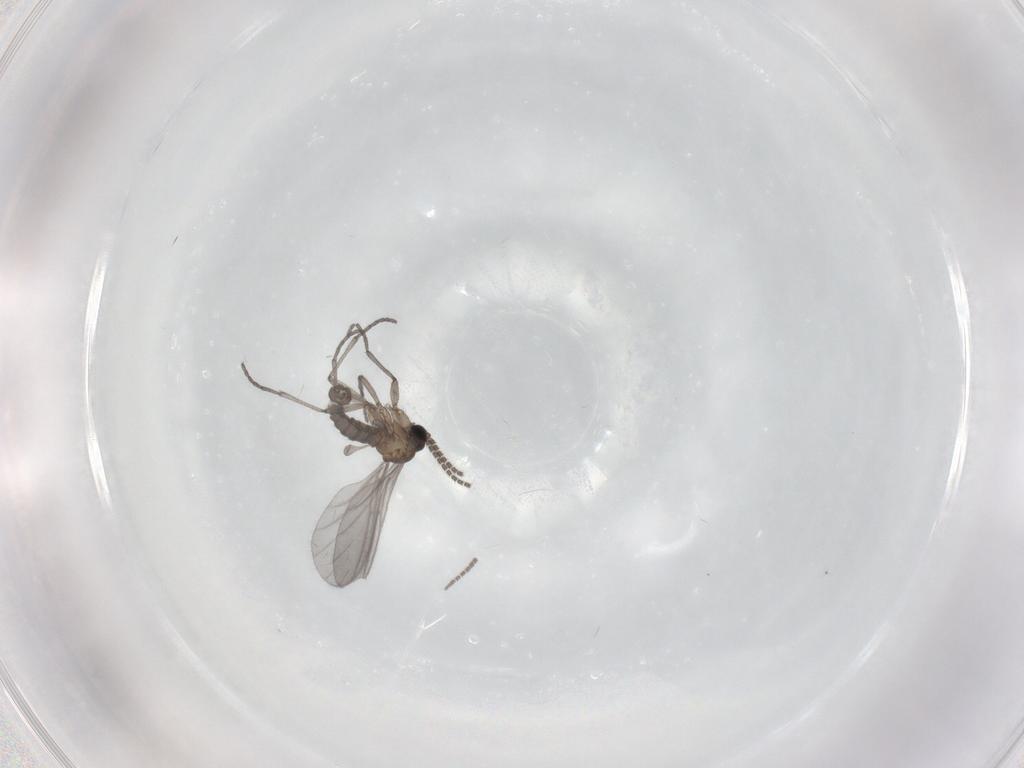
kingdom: Animalia
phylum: Arthropoda
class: Insecta
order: Diptera
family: Sciaridae
